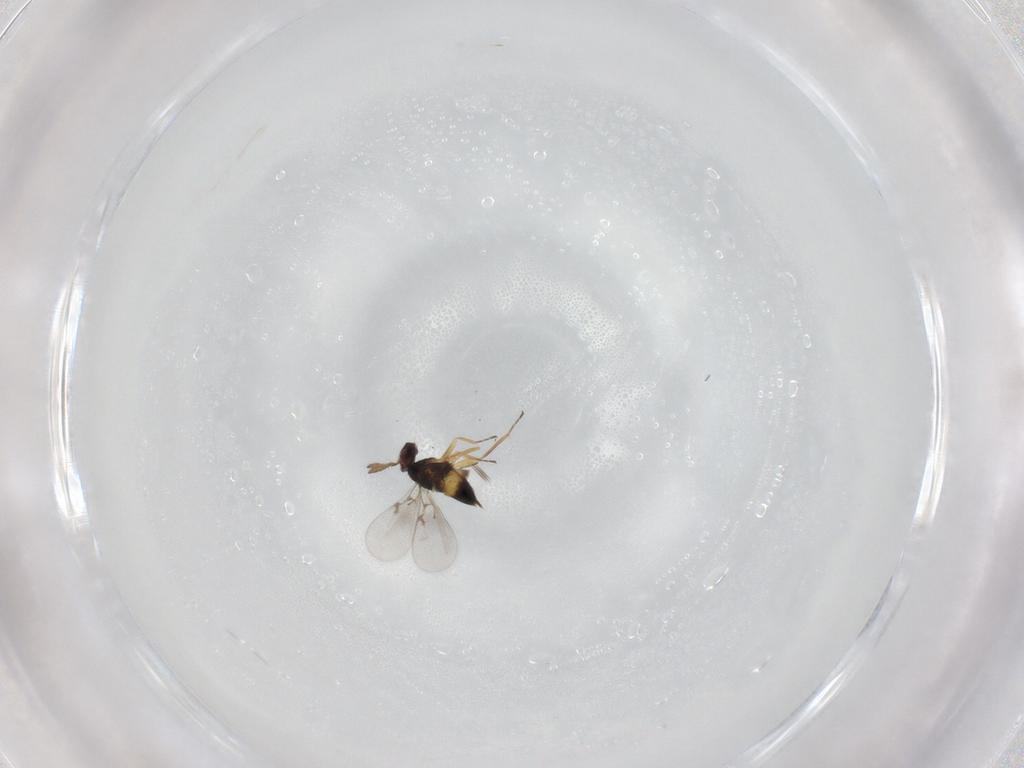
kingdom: Animalia
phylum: Arthropoda
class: Insecta
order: Hymenoptera
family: Eulophidae
